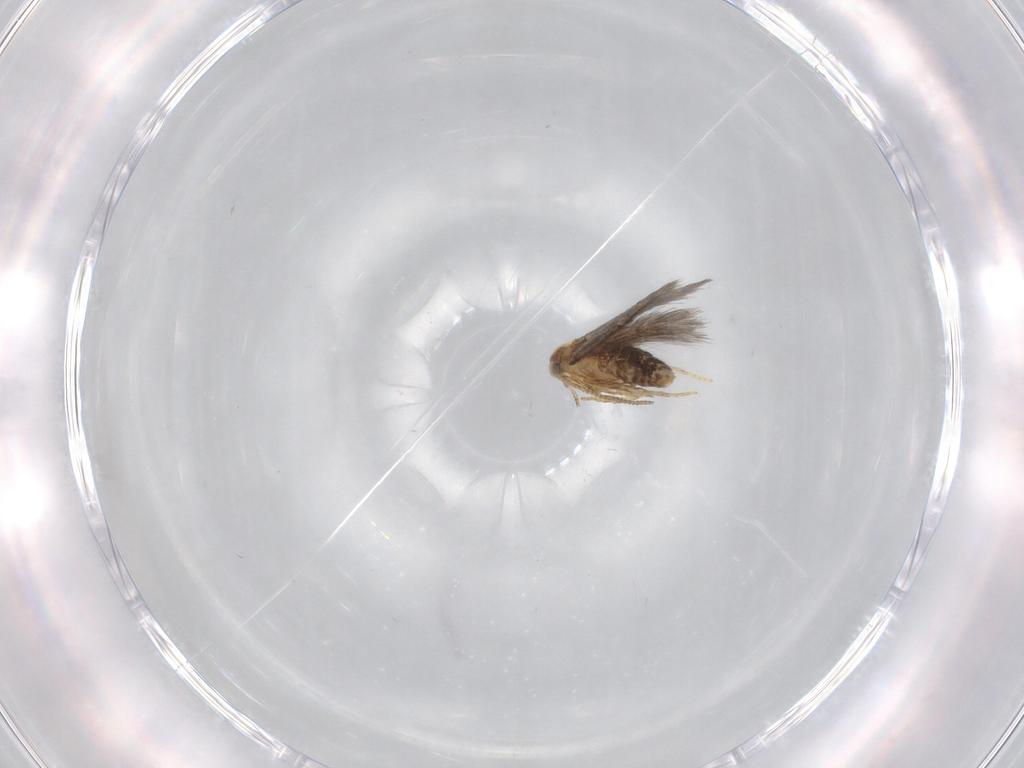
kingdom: Animalia
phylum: Arthropoda
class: Insecta
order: Lepidoptera
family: Nepticulidae
